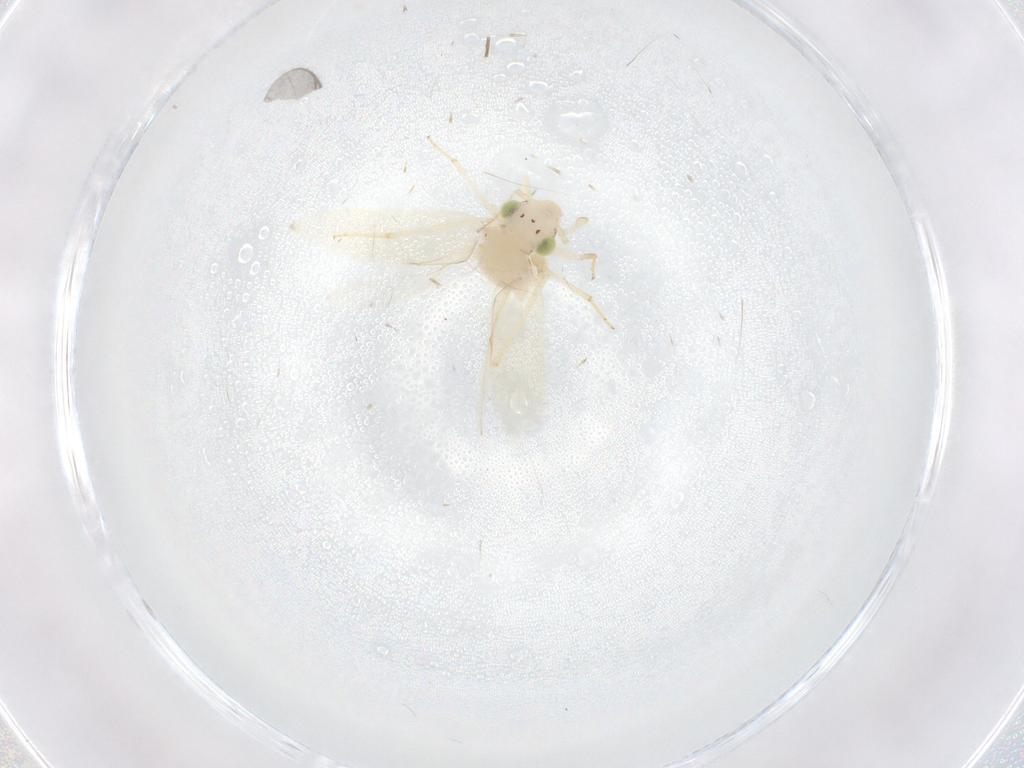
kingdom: Animalia
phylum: Arthropoda
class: Insecta
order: Psocodea
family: Lepidopsocidae
